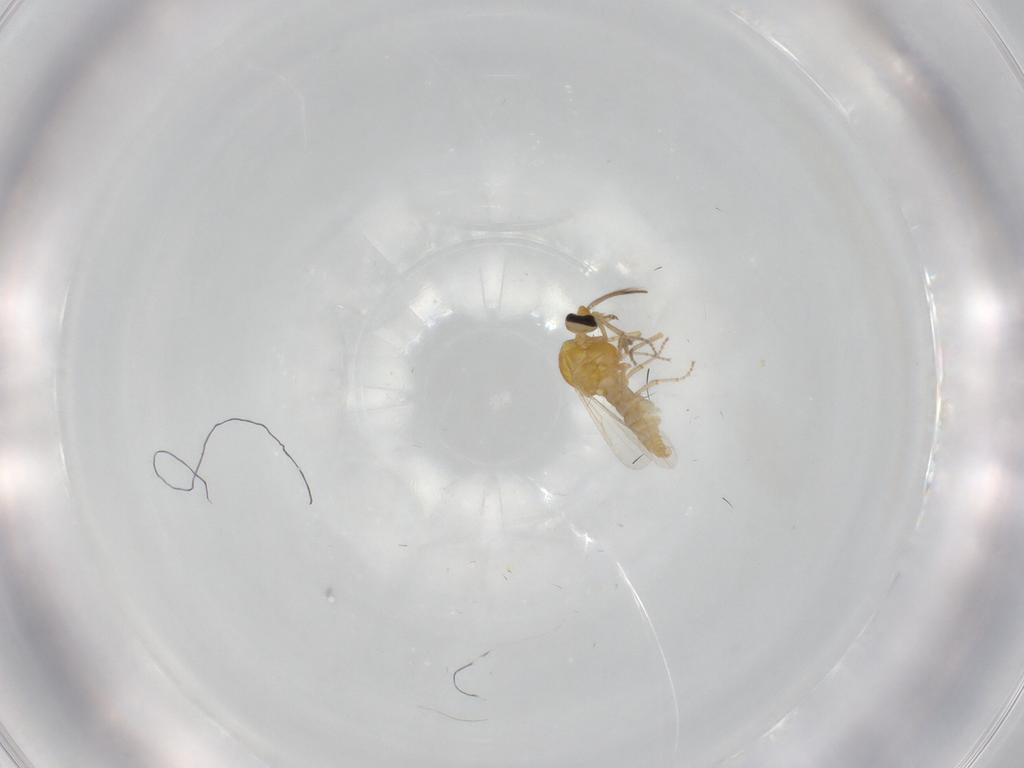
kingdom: Animalia
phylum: Arthropoda
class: Insecta
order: Diptera
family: Ceratopogonidae
